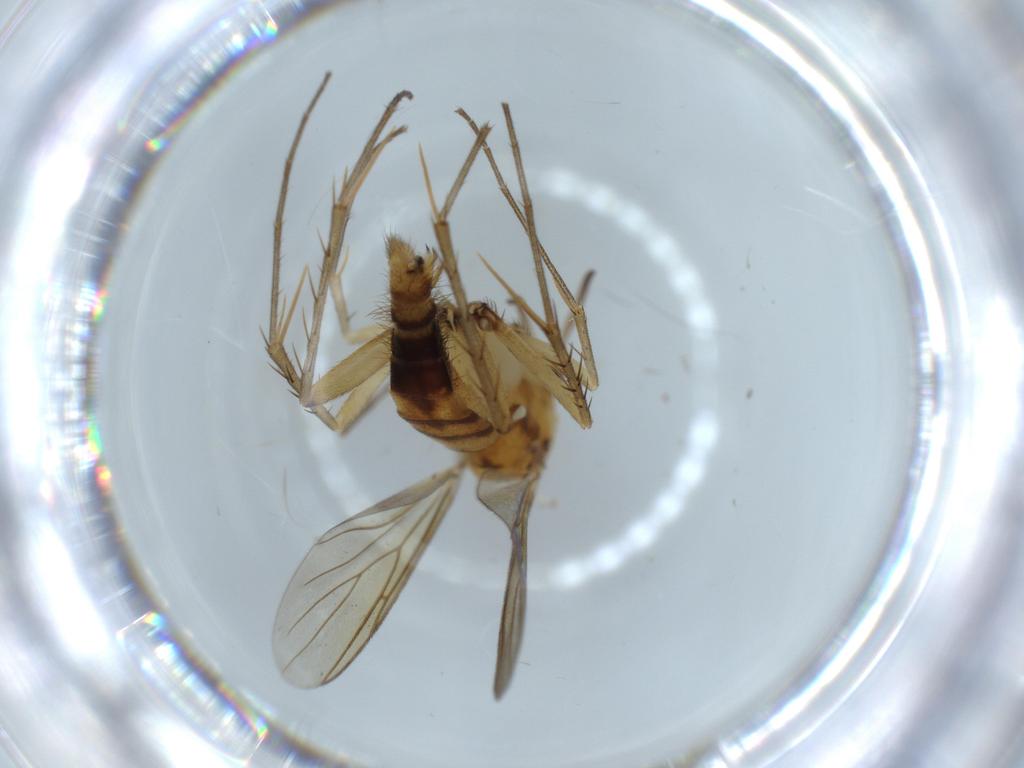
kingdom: Animalia
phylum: Arthropoda
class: Insecta
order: Diptera
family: Mycetophilidae
